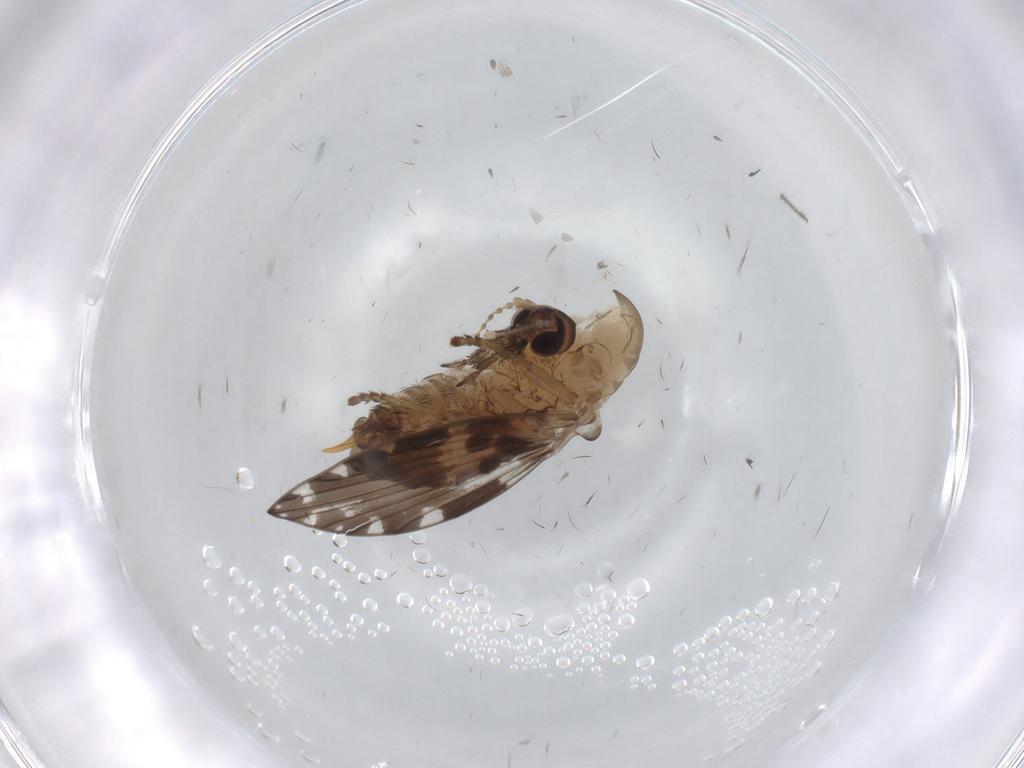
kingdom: Animalia
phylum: Arthropoda
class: Insecta
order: Diptera
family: Psychodidae
